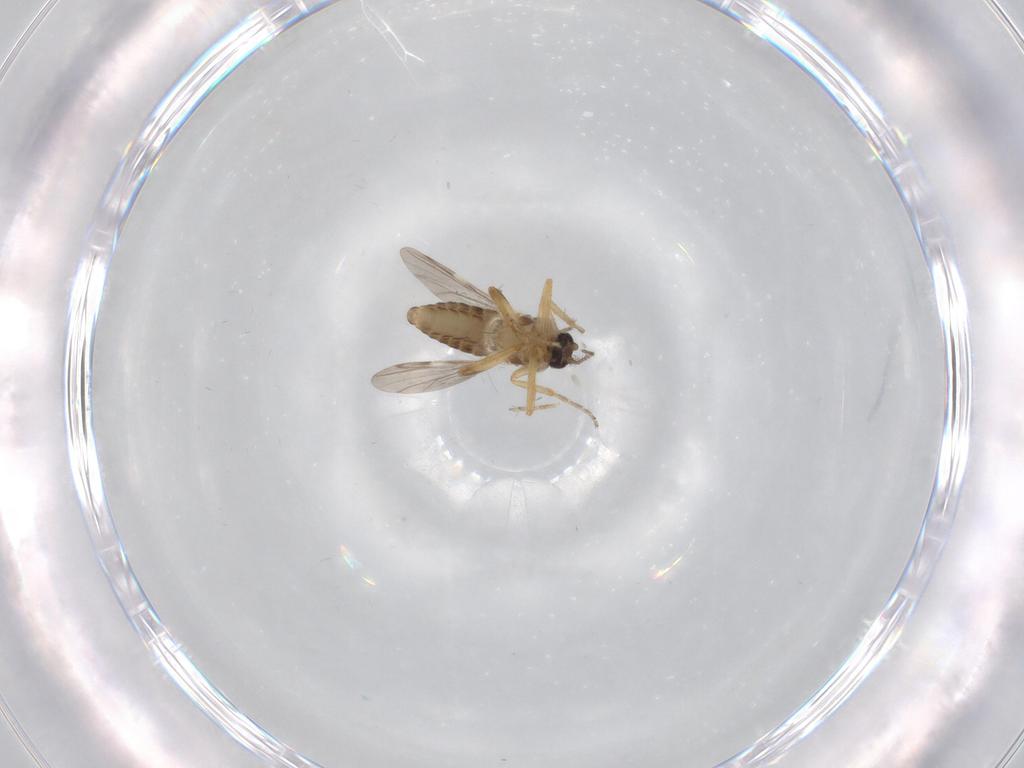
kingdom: Animalia
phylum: Arthropoda
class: Insecta
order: Diptera
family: Ceratopogonidae
